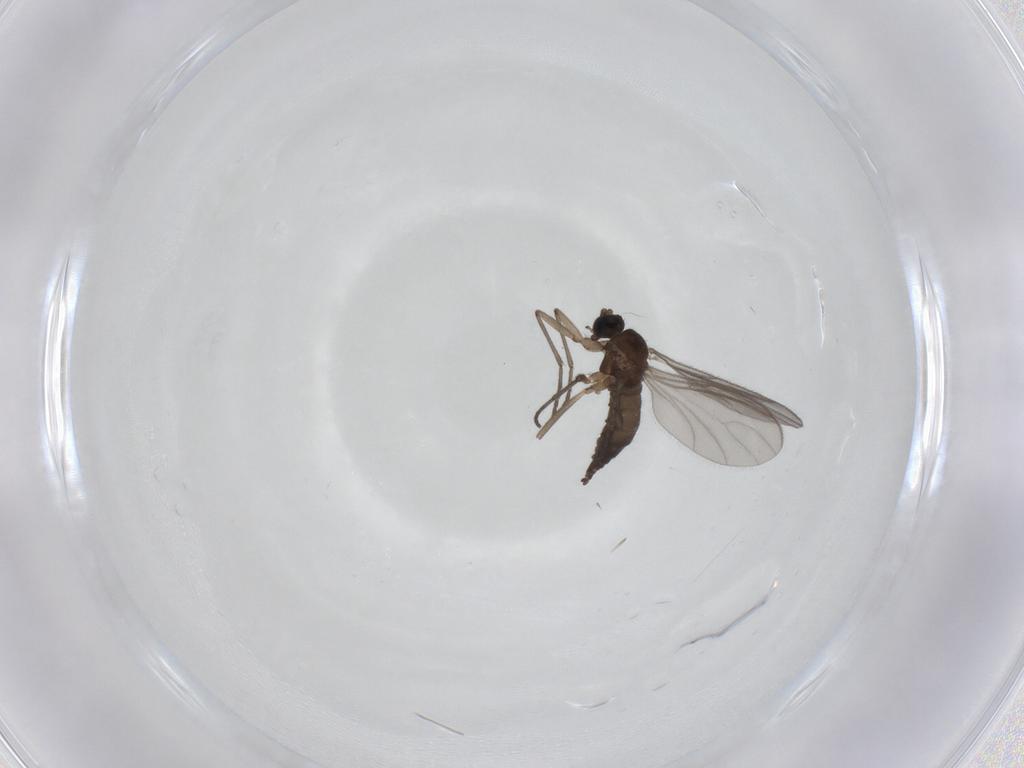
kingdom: Animalia
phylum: Arthropoda
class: Insecta
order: Diptera
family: Sciaridae
